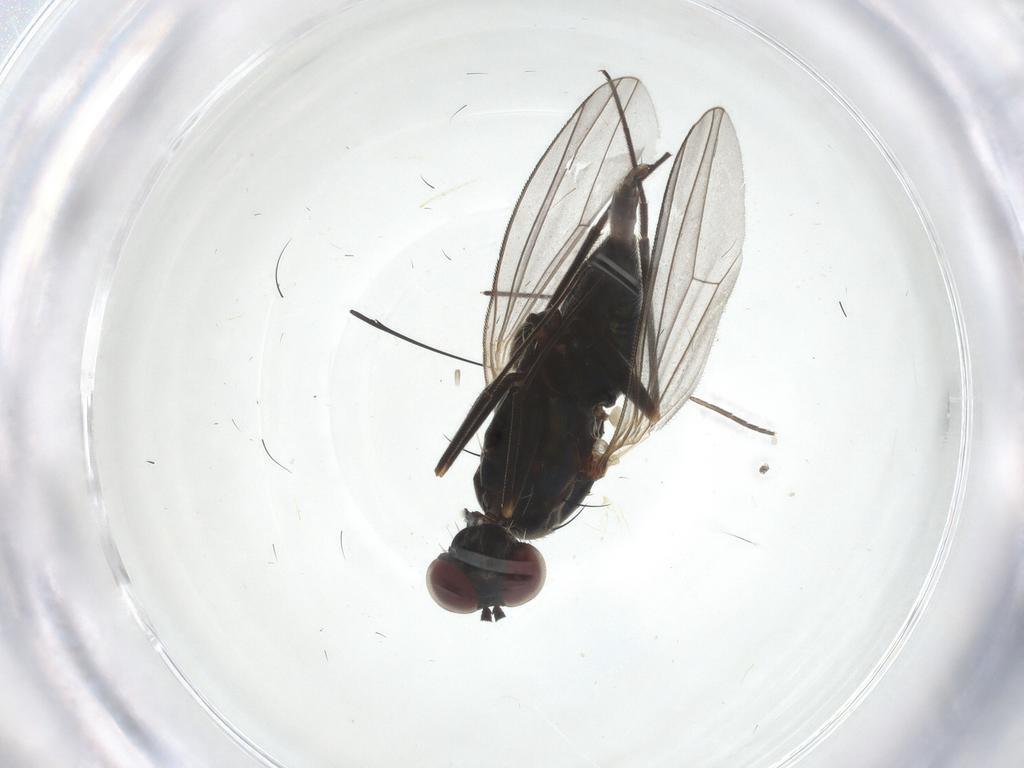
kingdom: Animalia
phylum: Arthropoda
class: Insecta
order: Diptera
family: Dolichopodidae
